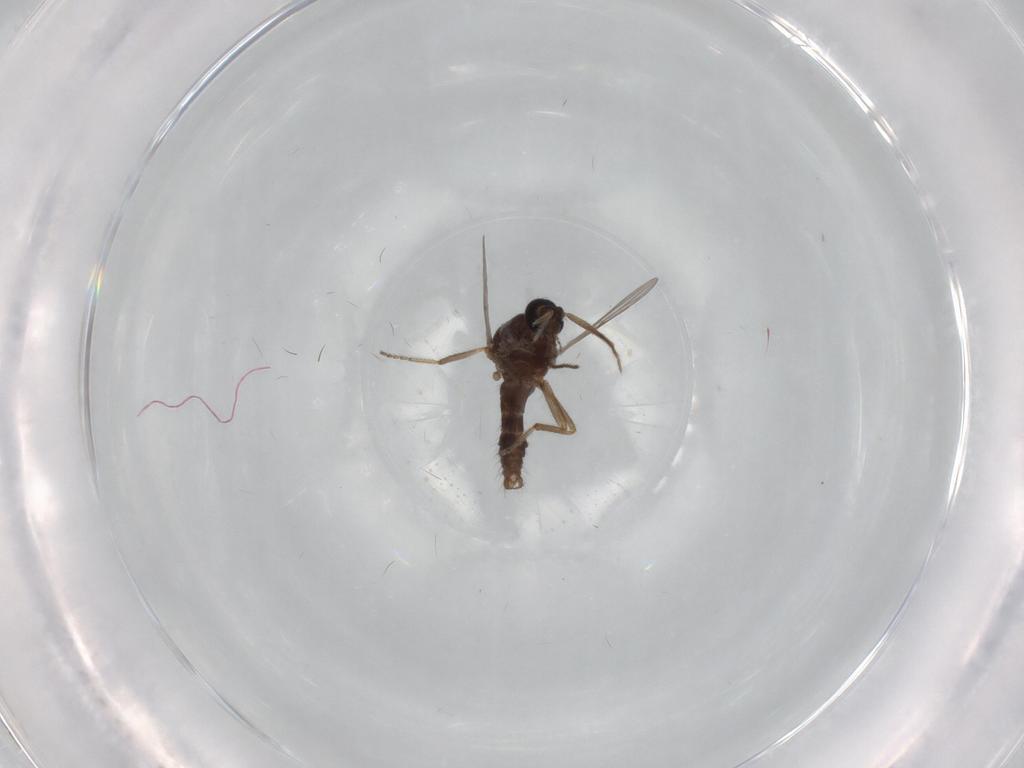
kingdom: Animalia
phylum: Arthropoda
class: Insecta
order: Diptera
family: Ceratopogonidae
